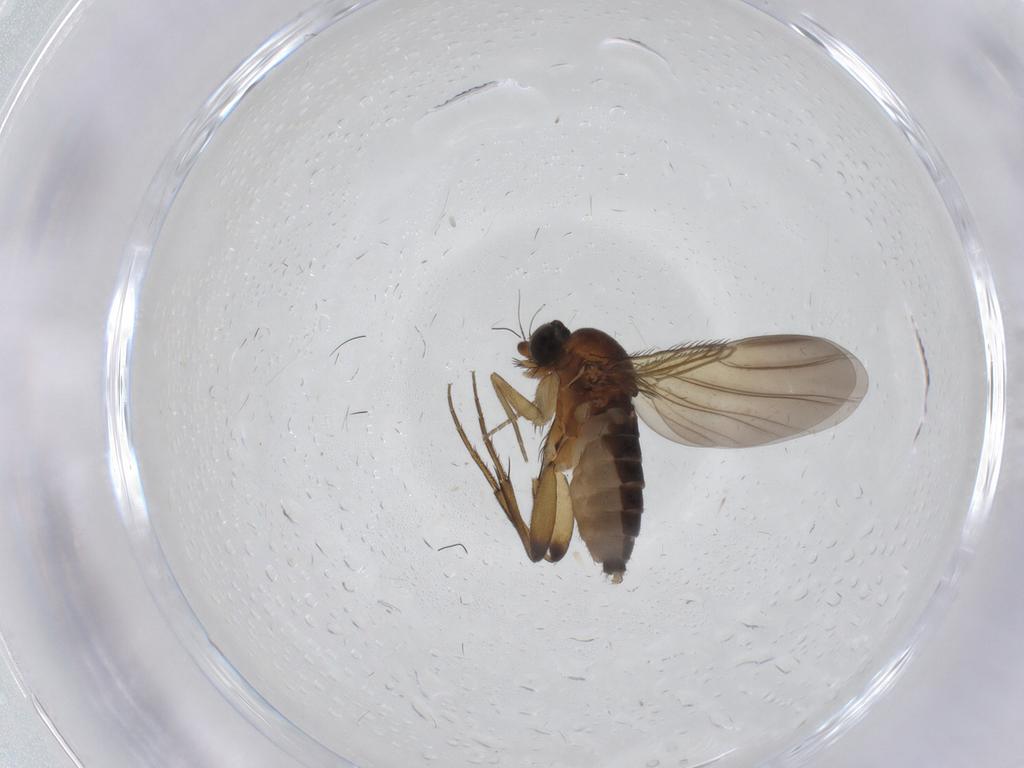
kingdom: Animalia
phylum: Arthropoda
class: Insecta
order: Diptera
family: Phoridae
